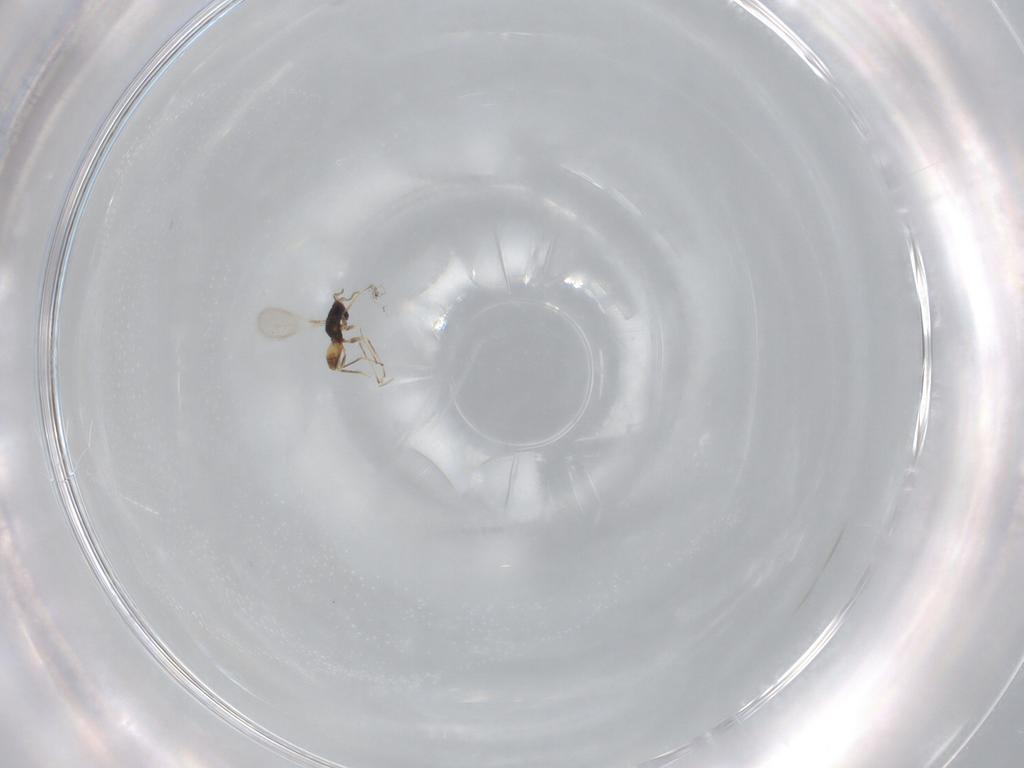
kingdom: Animalia
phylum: Arthropoda
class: Insecta
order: Hymenoptera
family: Mymaridae
